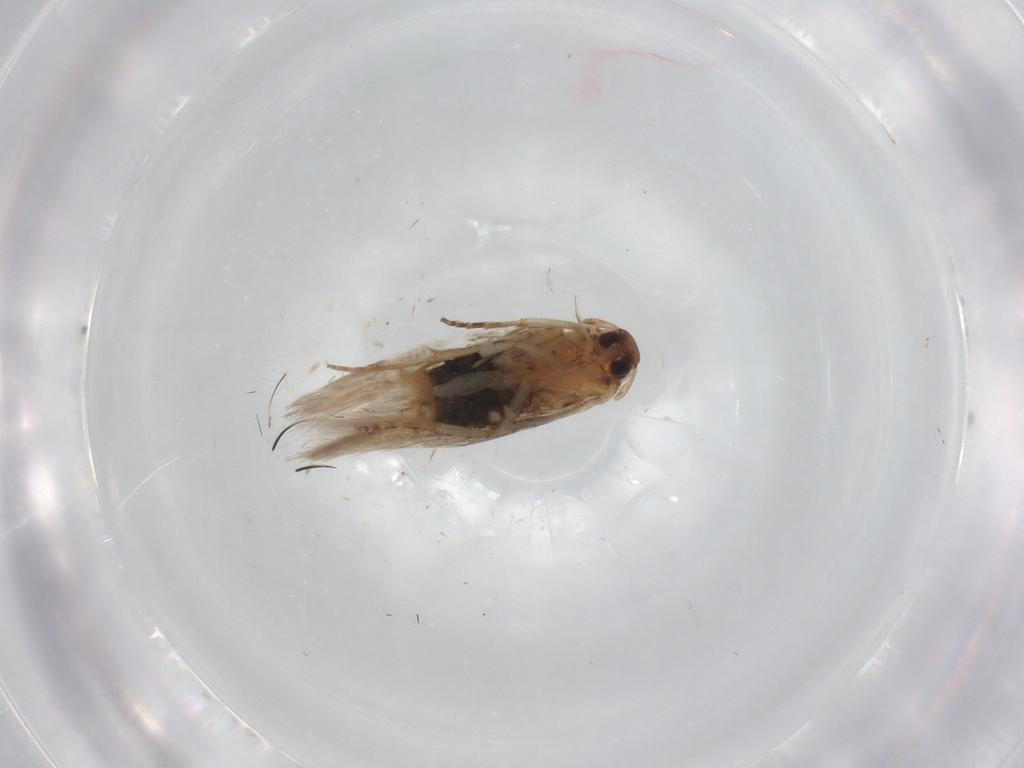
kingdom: Animalia
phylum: Arthropoda
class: Insecta
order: Lepidoptera
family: Cosmopterigidae
